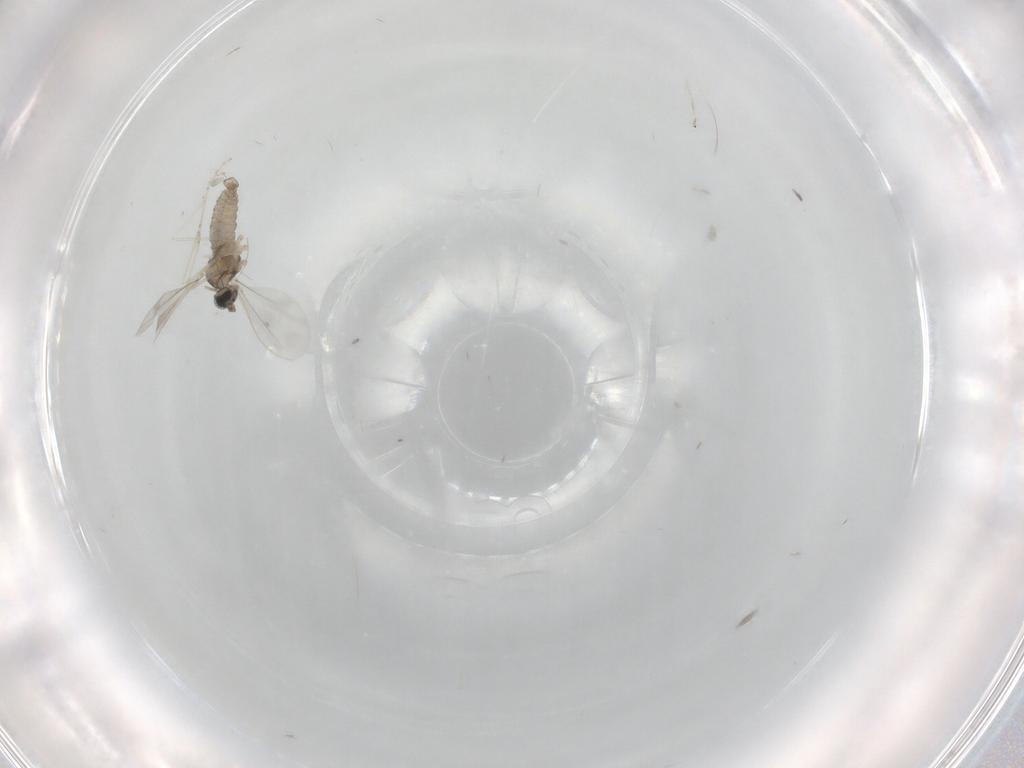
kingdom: Animalia
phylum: Arthropoda
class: Insecta
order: Diptera
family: Cecidomyiidae
